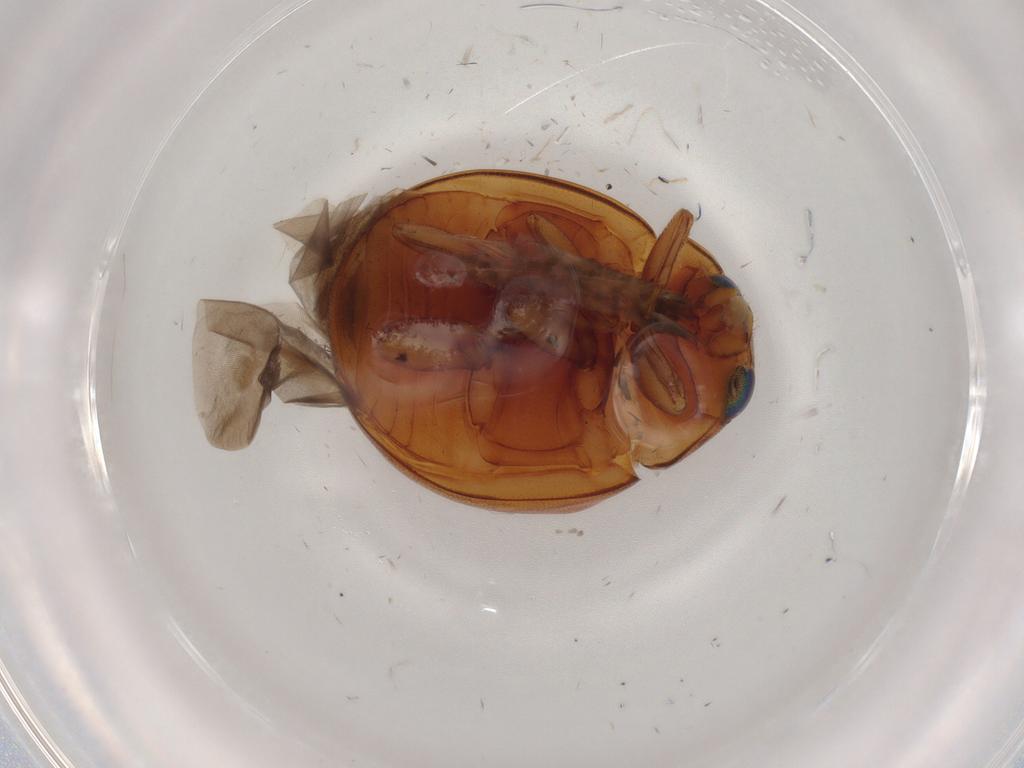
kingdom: Animalia
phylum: Arthropoda
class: Insecta
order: Coleoptera
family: Coccinellidae
